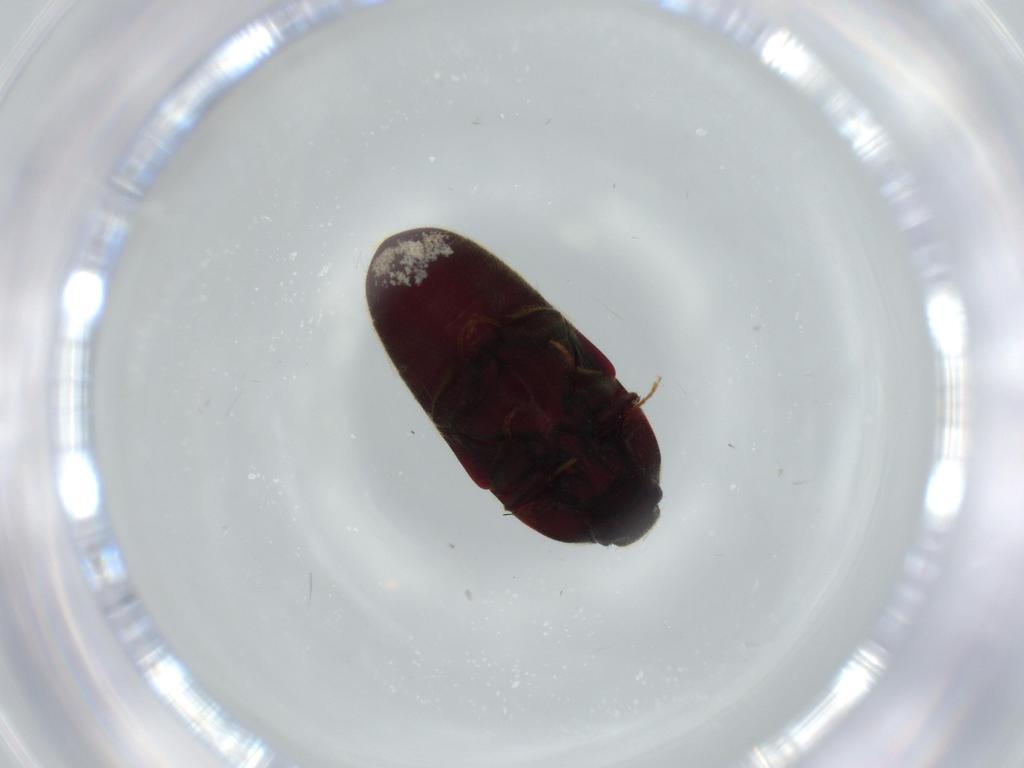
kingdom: Animalia
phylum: Arthropoda
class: Insecta
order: Coleoptera
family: Throscidae
